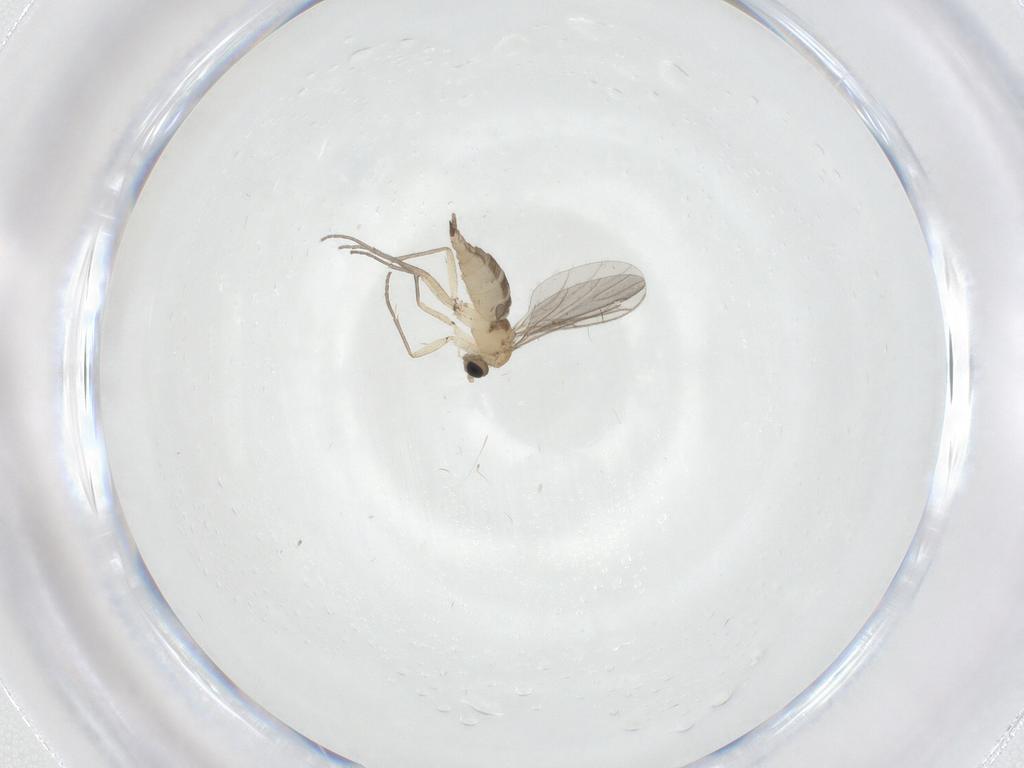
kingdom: Animalia
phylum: Arthropoda
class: Insecta
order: Diptera
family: Sciaridae
